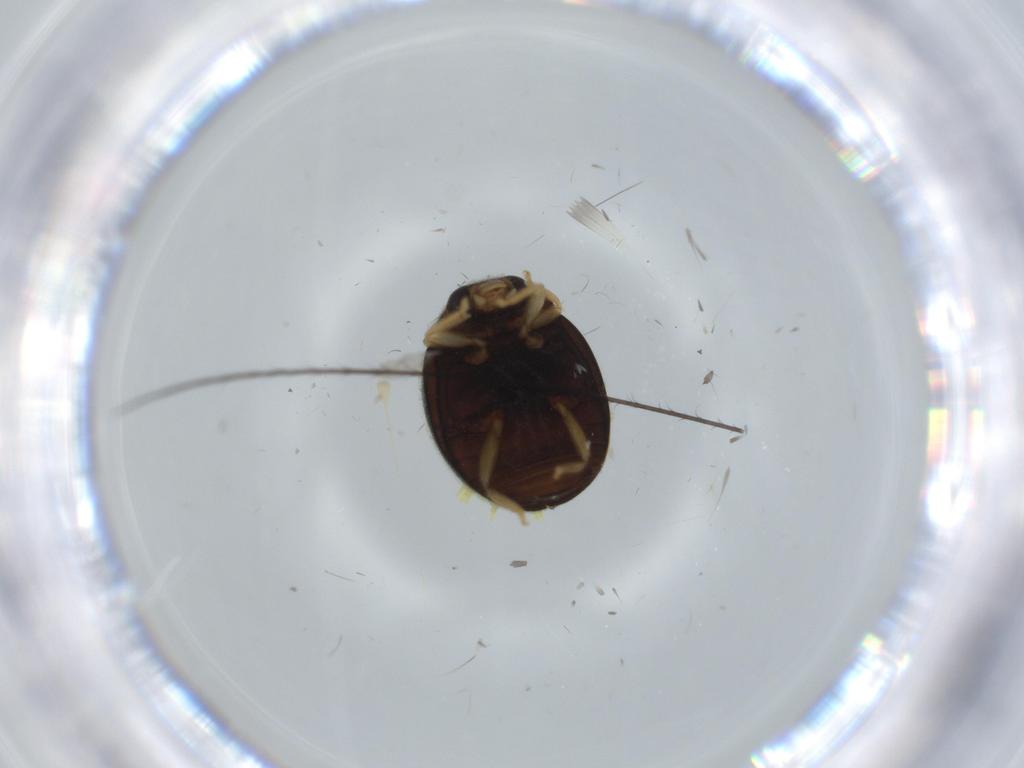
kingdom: Animalia
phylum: Arthropoda
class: Insecta
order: Coleoptera
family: Coccinellidae
